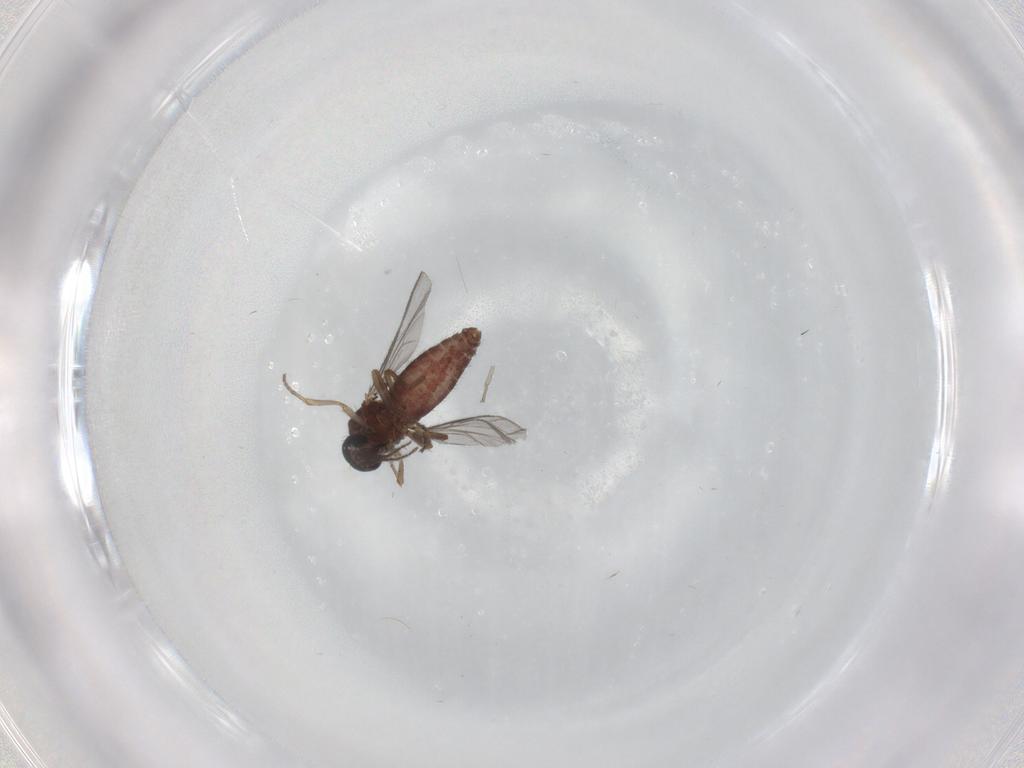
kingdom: Animalia
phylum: Arthropoda
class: Insecta
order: Diptera
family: Ceratopogonidae
